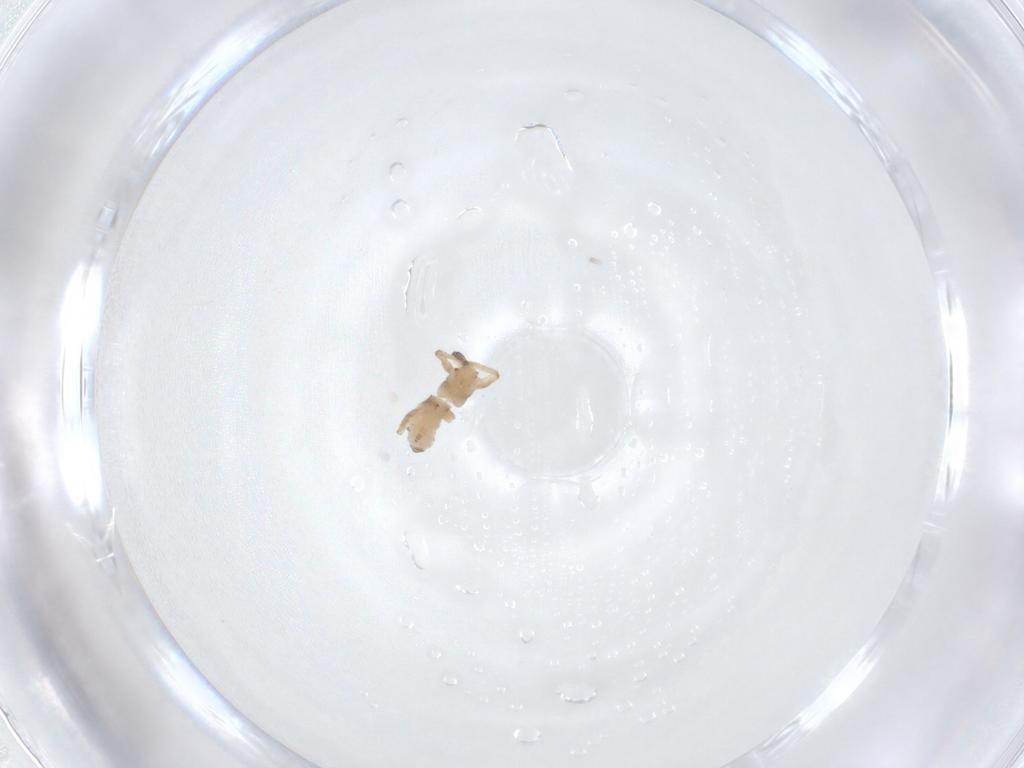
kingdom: Animalia
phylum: Arthropoda
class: Insecta
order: Hemiptera
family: Aphididae
